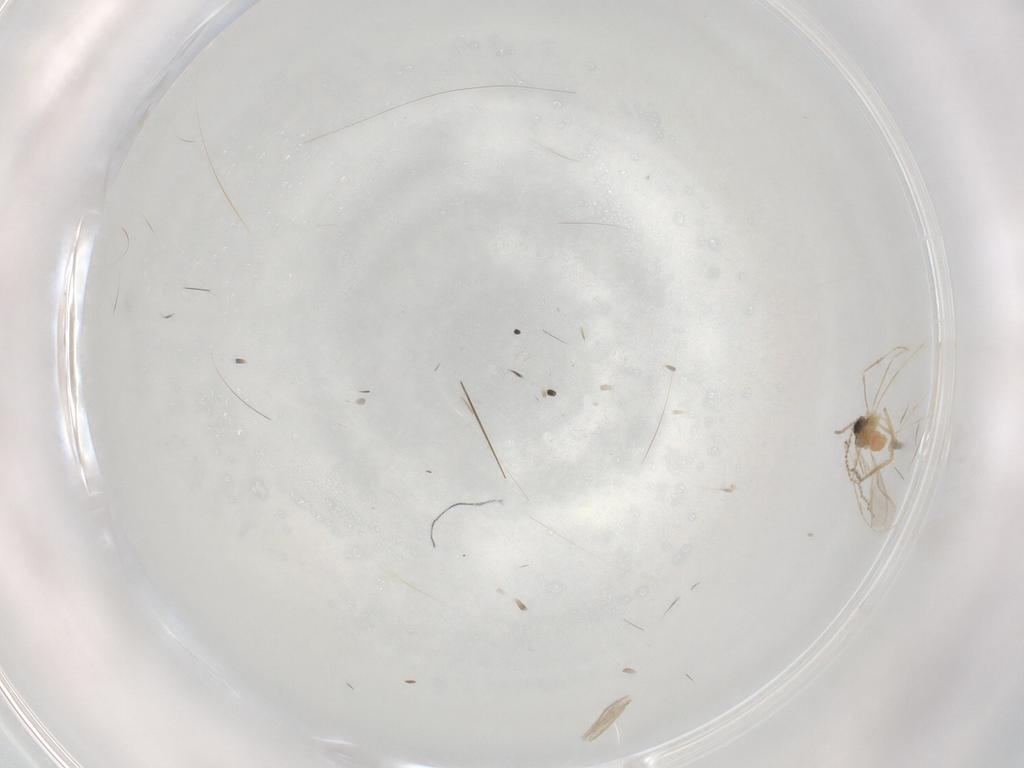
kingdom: Animalia
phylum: Arthropoda
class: Insecta
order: Diptera
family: Cecidomyiidae
